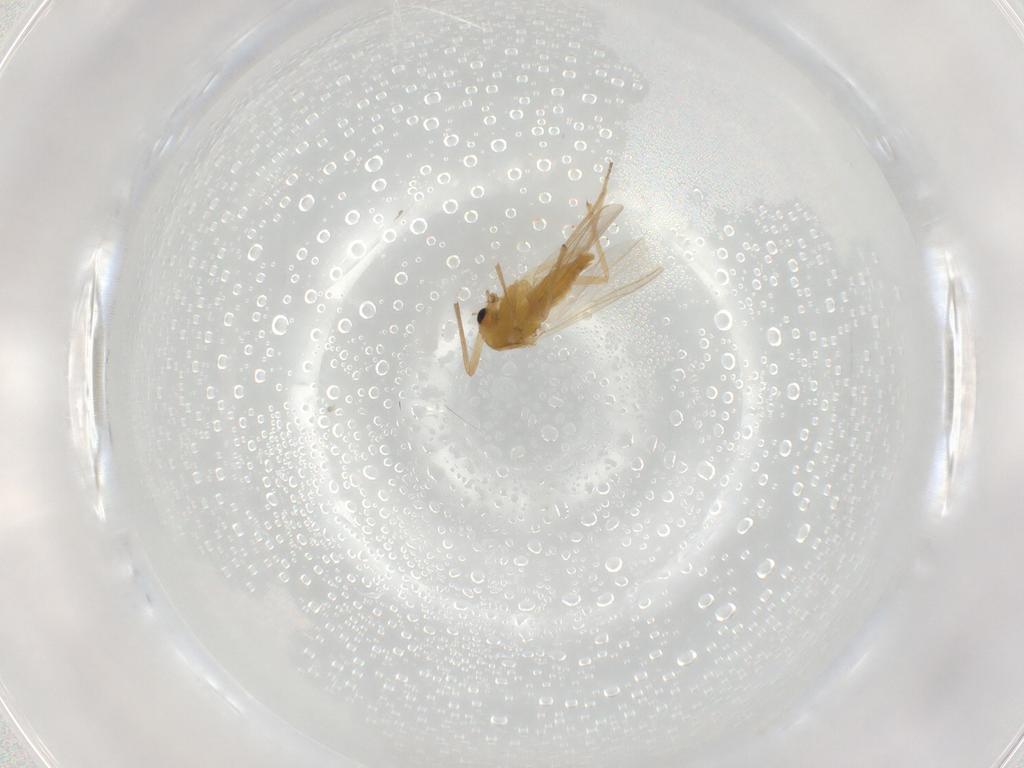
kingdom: Animalia
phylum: Arthropoda
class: Insecta
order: Diptera
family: Chironomidae
